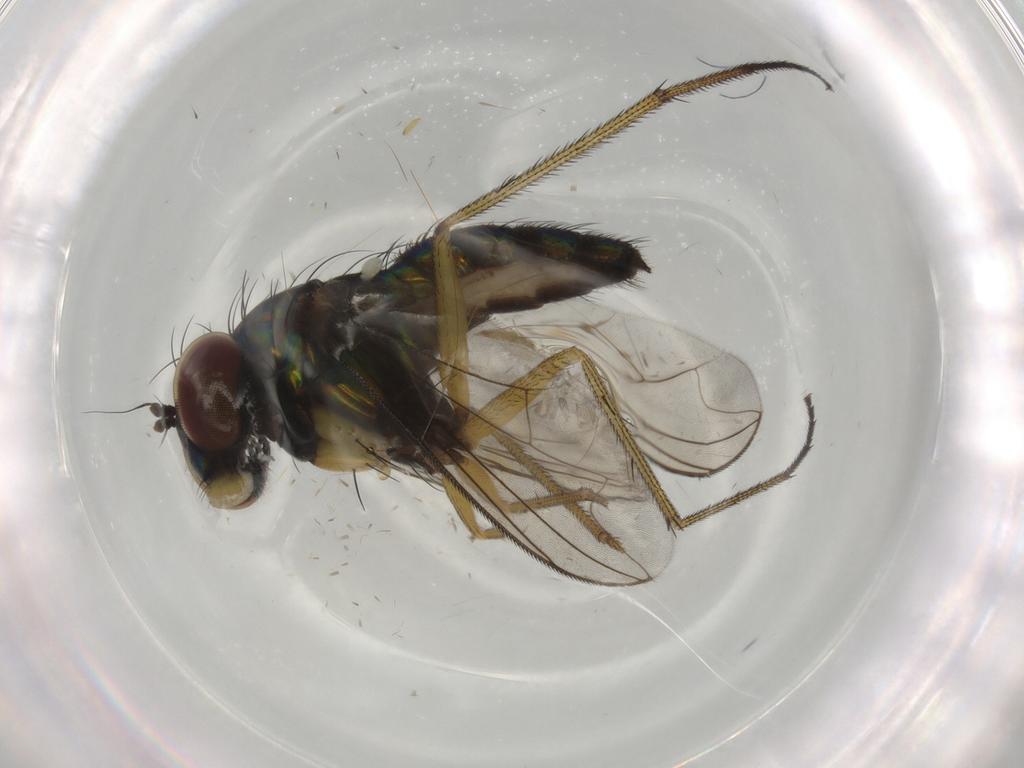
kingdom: Animalia
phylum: Arthropoda
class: Insecta
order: Diptera
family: Dolichopodidae
